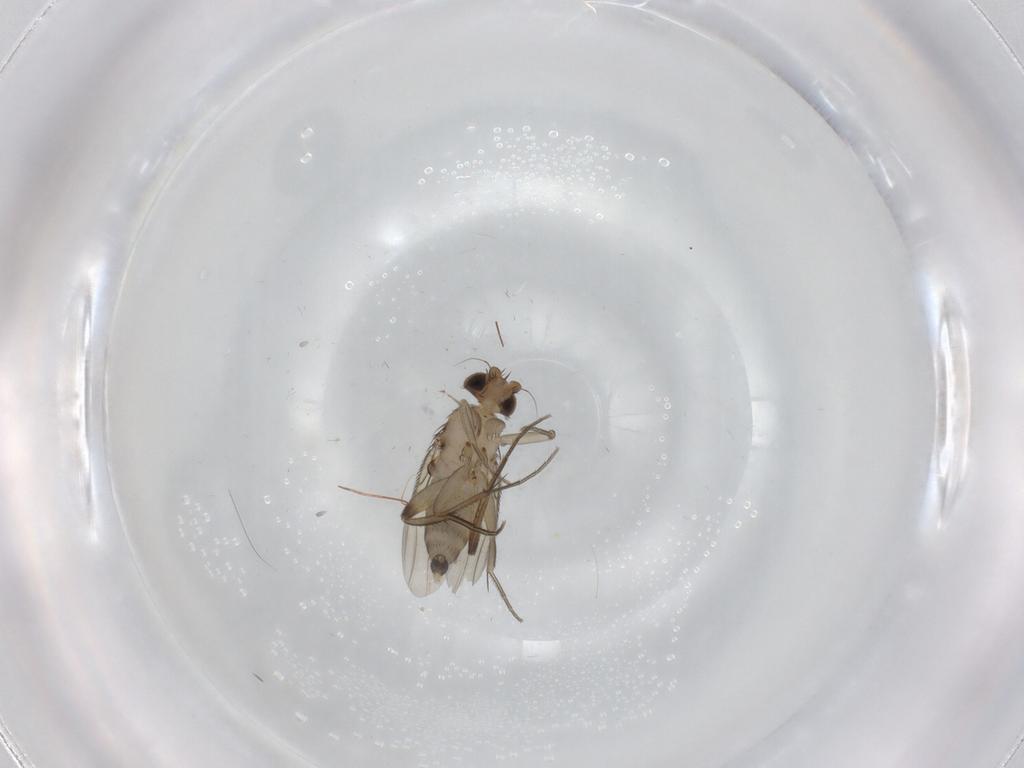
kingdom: Animalia
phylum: Arthropoda
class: Insecta
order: Diptera
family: Cecidomyiidae
